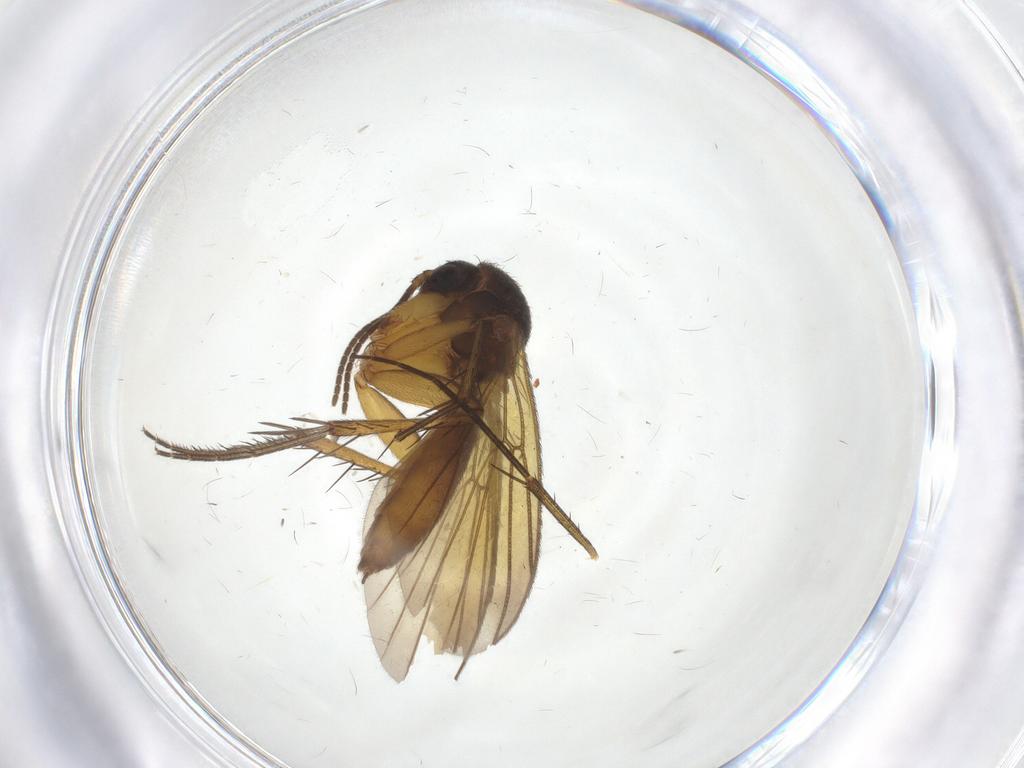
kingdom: Animalia
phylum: Arthropoda
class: Insecta
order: Diptera
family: Mycetophilidae
